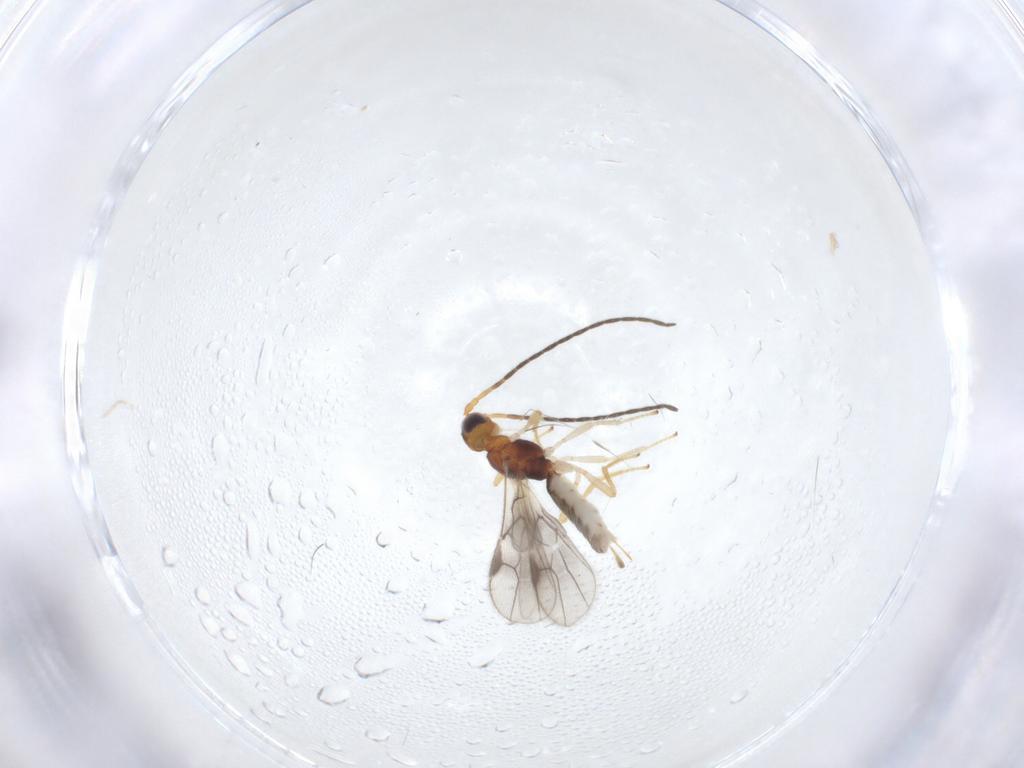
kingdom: Animalia
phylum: Arthropoda
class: Insecta
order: Hymenoptera
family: Braconidae
